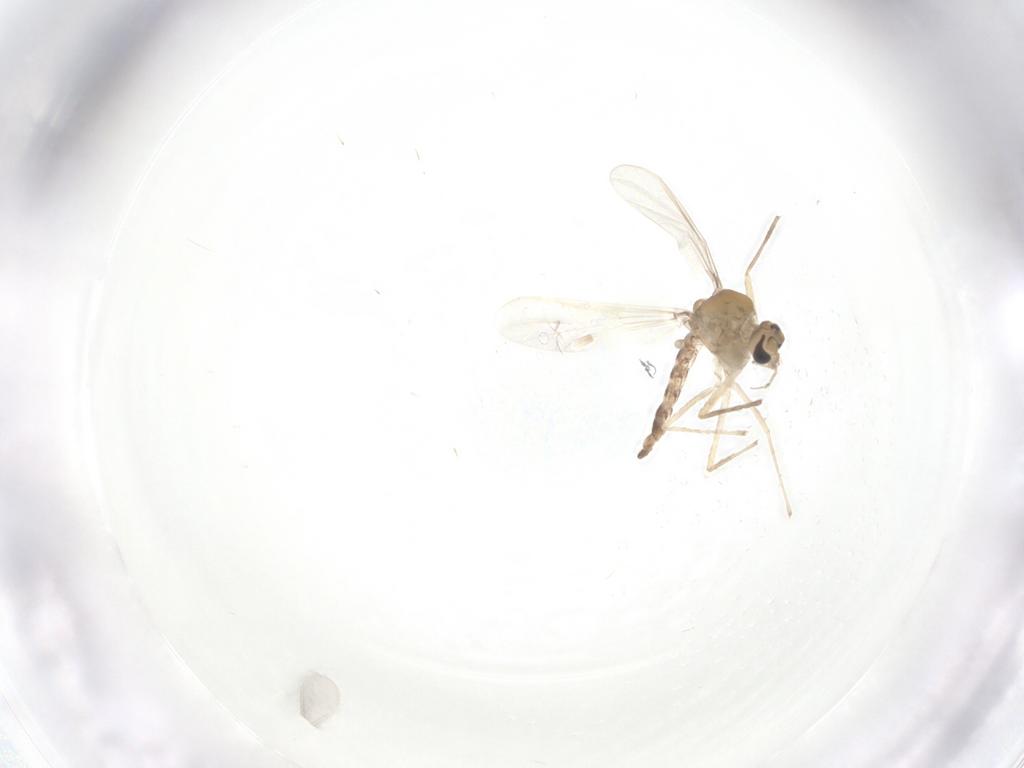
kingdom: Animalia
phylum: Arthropoda
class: Insecta
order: Diptera
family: Chironomidae
